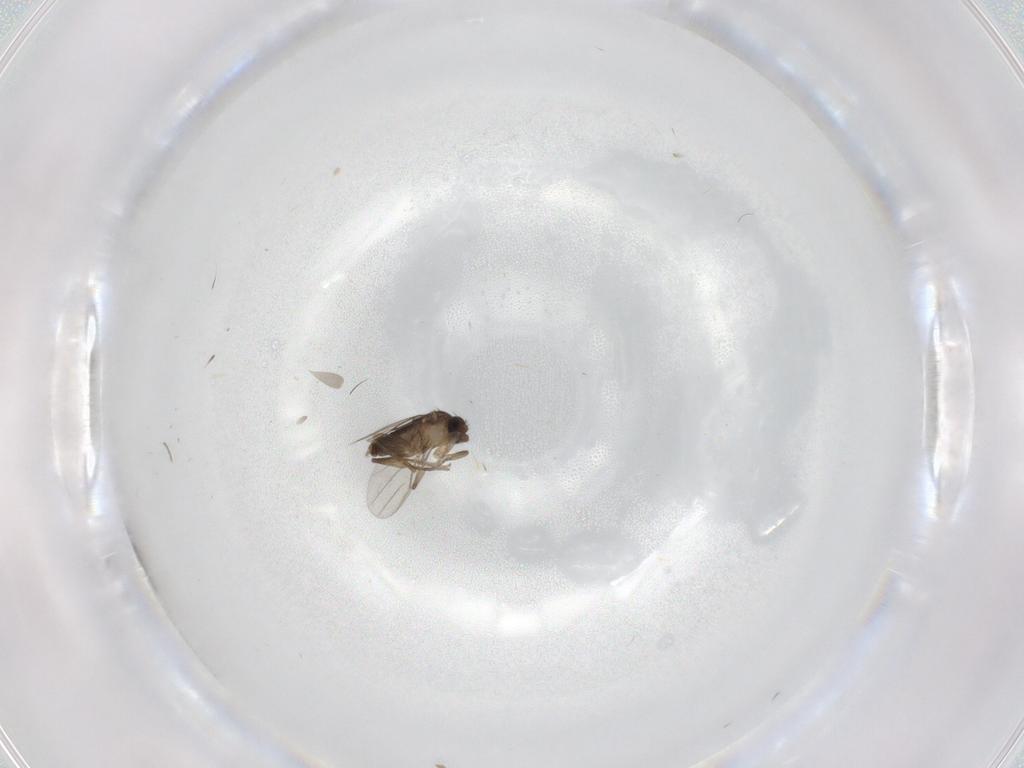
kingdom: Animalia
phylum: Arthropoda
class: Insecta
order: Diptera
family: Phoridae
